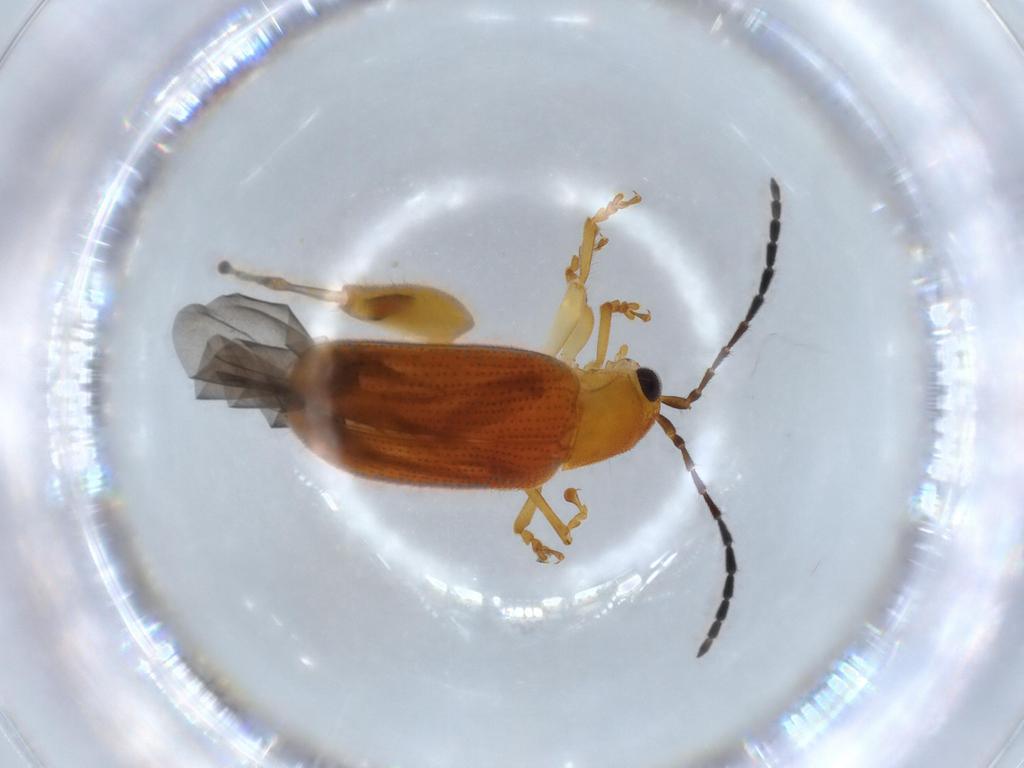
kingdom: Animalia
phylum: Arthropoda
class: Insecta
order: Coleoptera
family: Chrysomelidae
